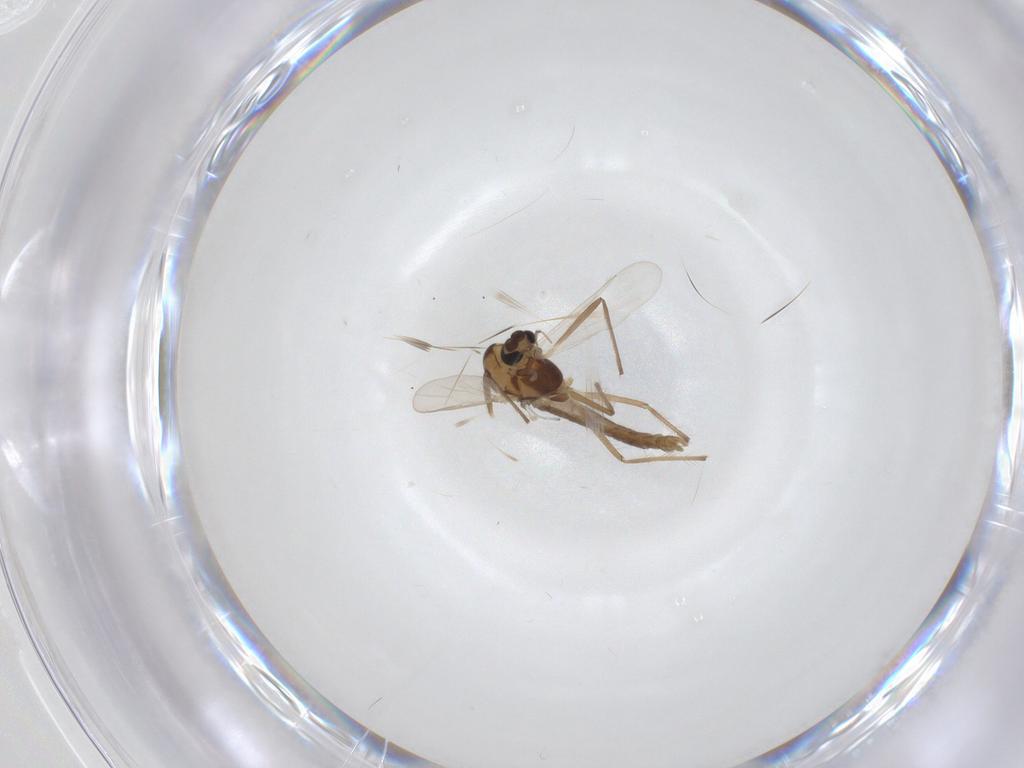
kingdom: Animalia
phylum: Arthropoda
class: Insecta
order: Diptera
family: Chironomidae
